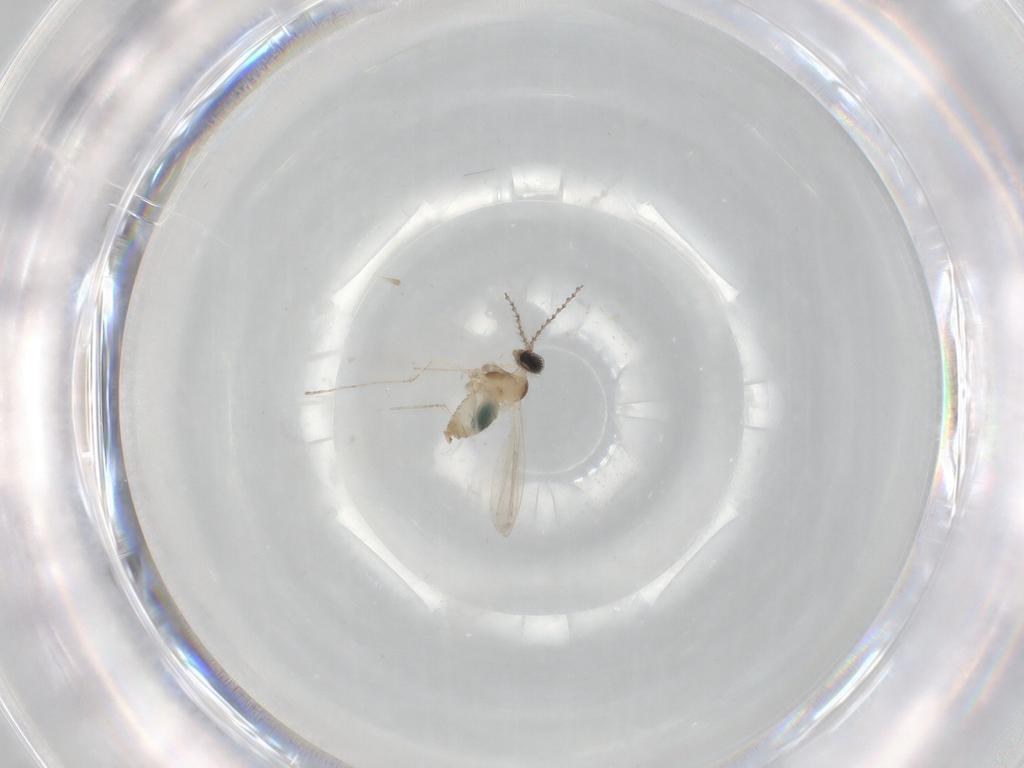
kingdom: Animalia
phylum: Arthropoda
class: Insecta
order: Diptera
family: Cecidomyiidae
